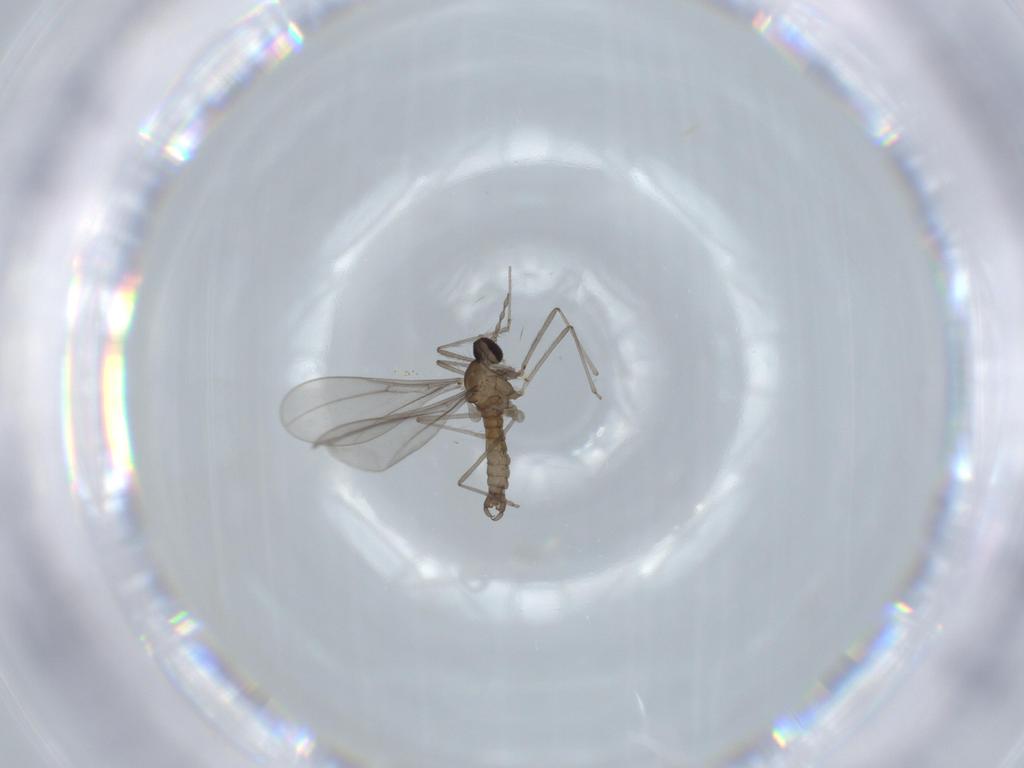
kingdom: Animalia
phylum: Arthropoda
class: Insecta
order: Diptera
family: Cecidomyiidae
